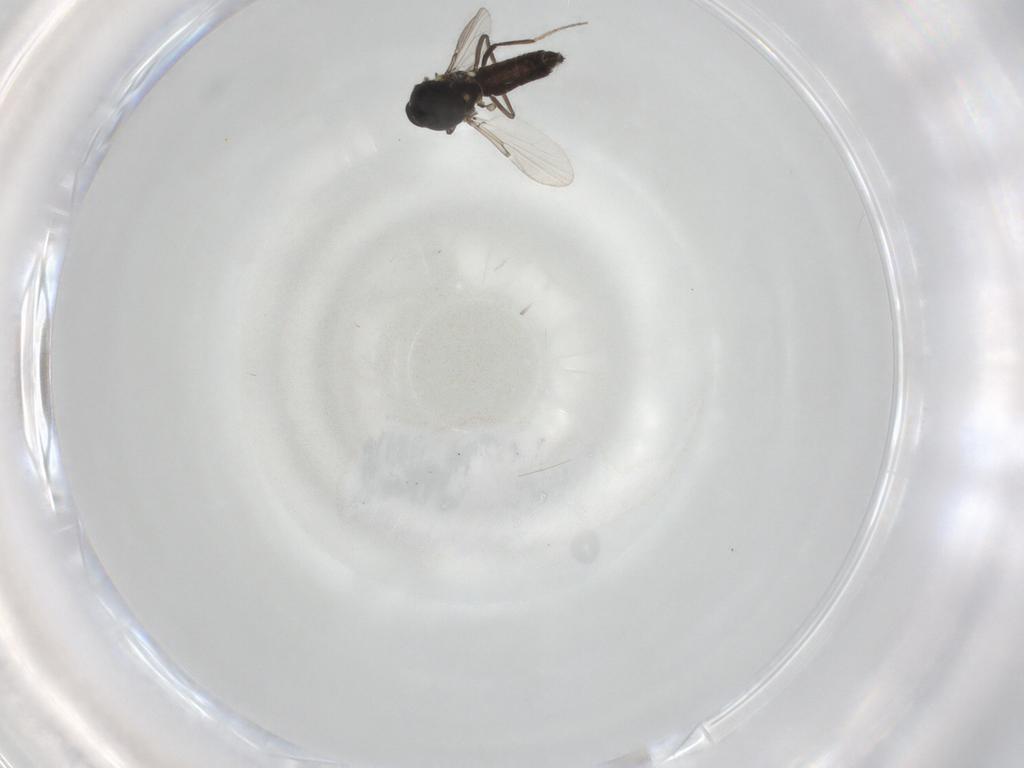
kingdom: Animalia
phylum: Arthropoda
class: Insecta
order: Diptera
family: Ceratopogonidae
